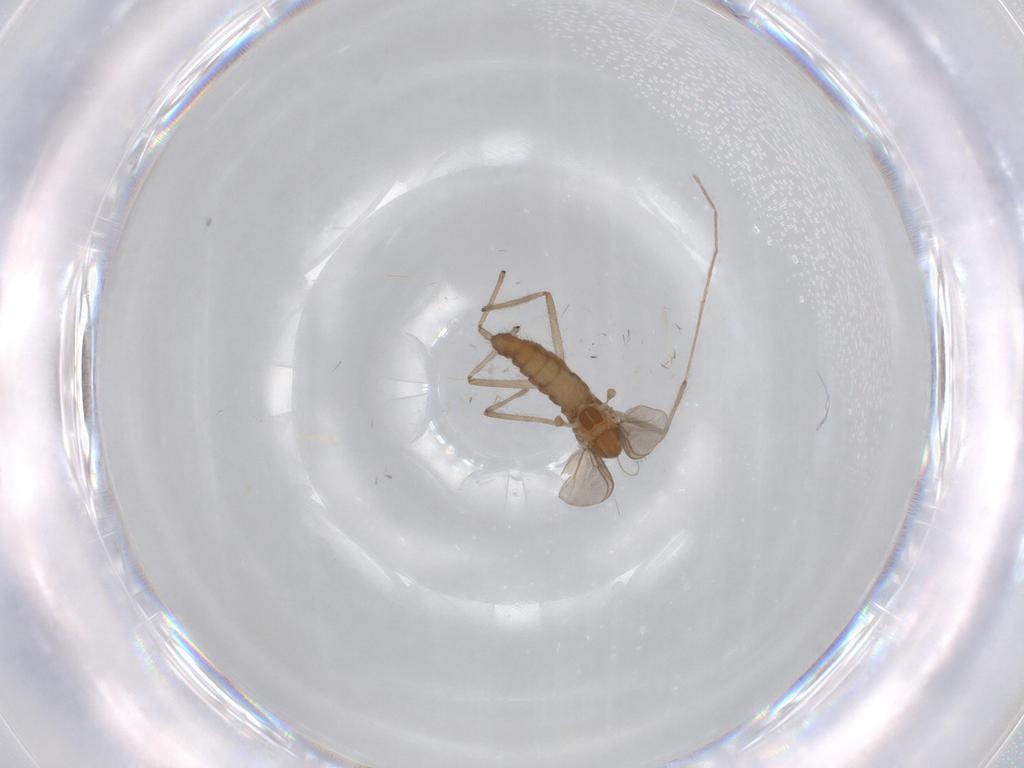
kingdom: Animalia
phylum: Arthropoda
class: Insecta
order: Diptera
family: Chironomidae
